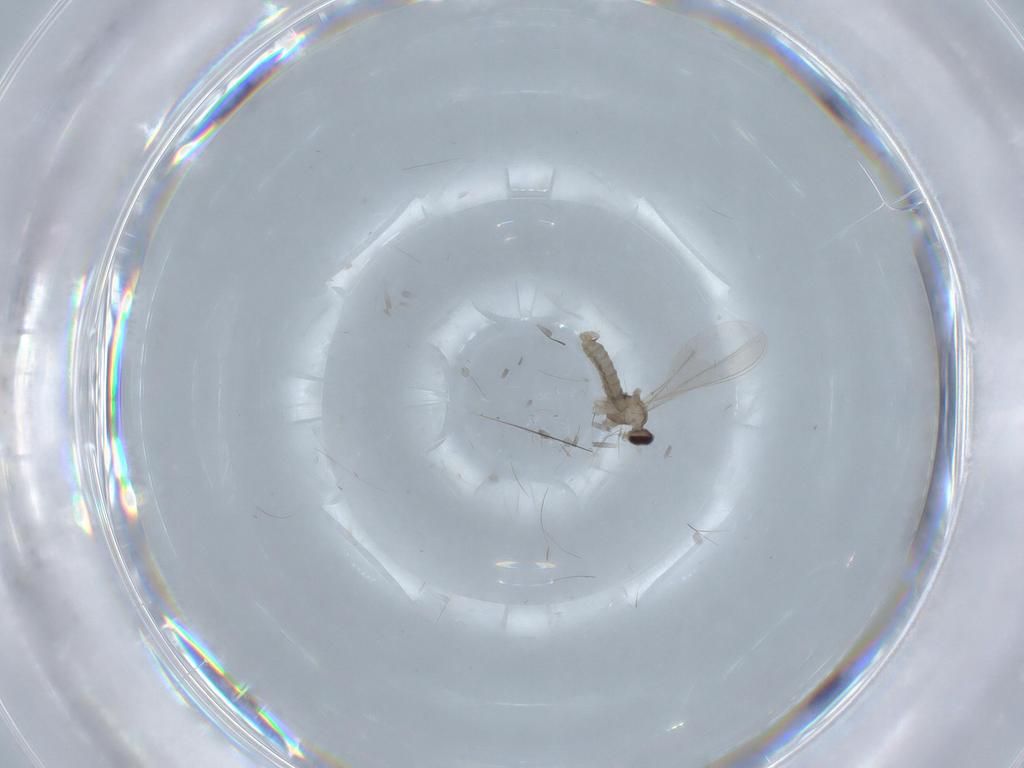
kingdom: Animalia
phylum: Arthropoda
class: Insecta
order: Diptera
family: Cecidomyiidae
